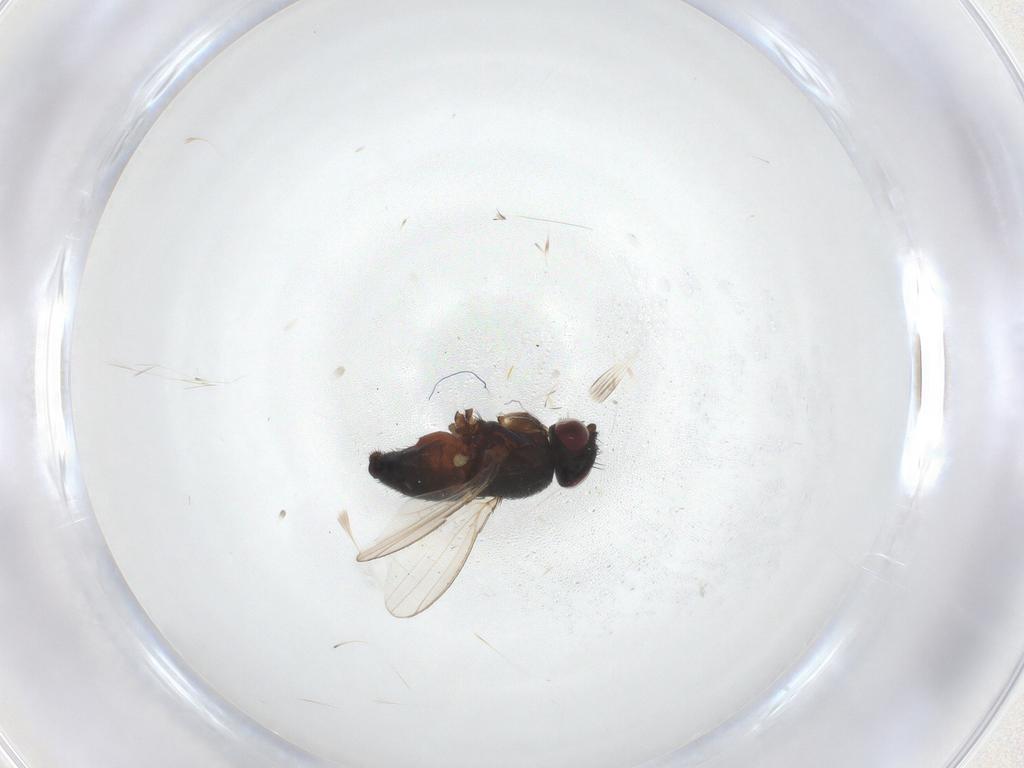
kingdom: Animalia
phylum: Arthropoda
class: Insecta
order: Diptera
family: Milichiidae
